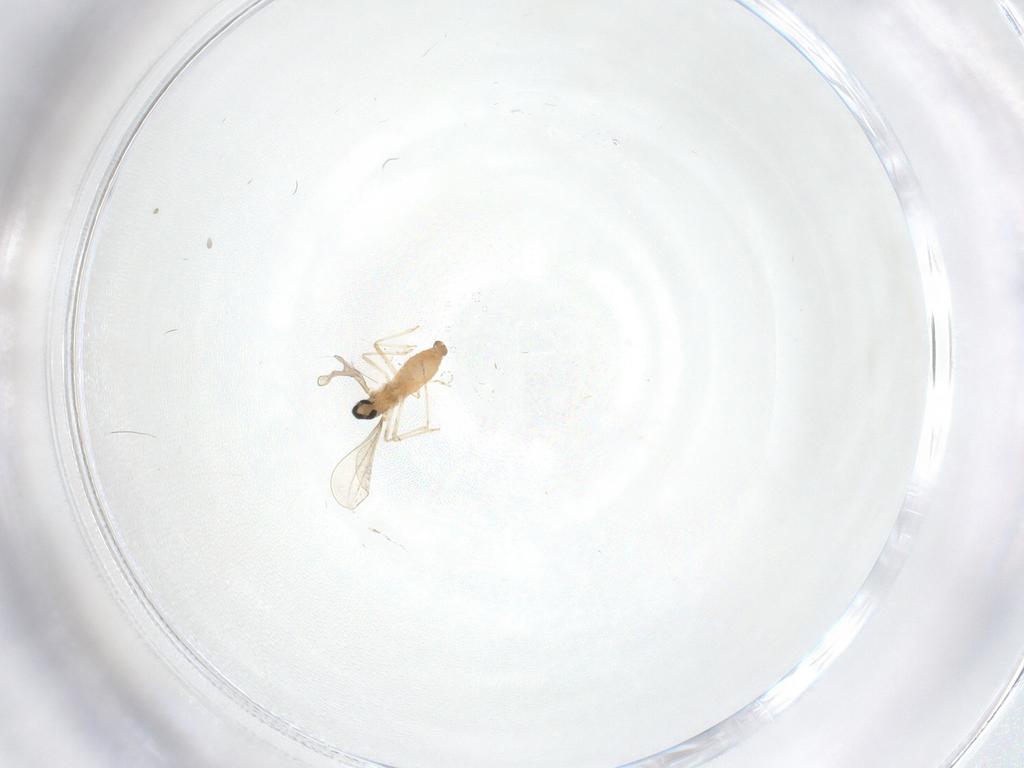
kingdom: Animalia
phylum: Arthropoda
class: Insecta
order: Diptera
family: Cecidomyiidae
